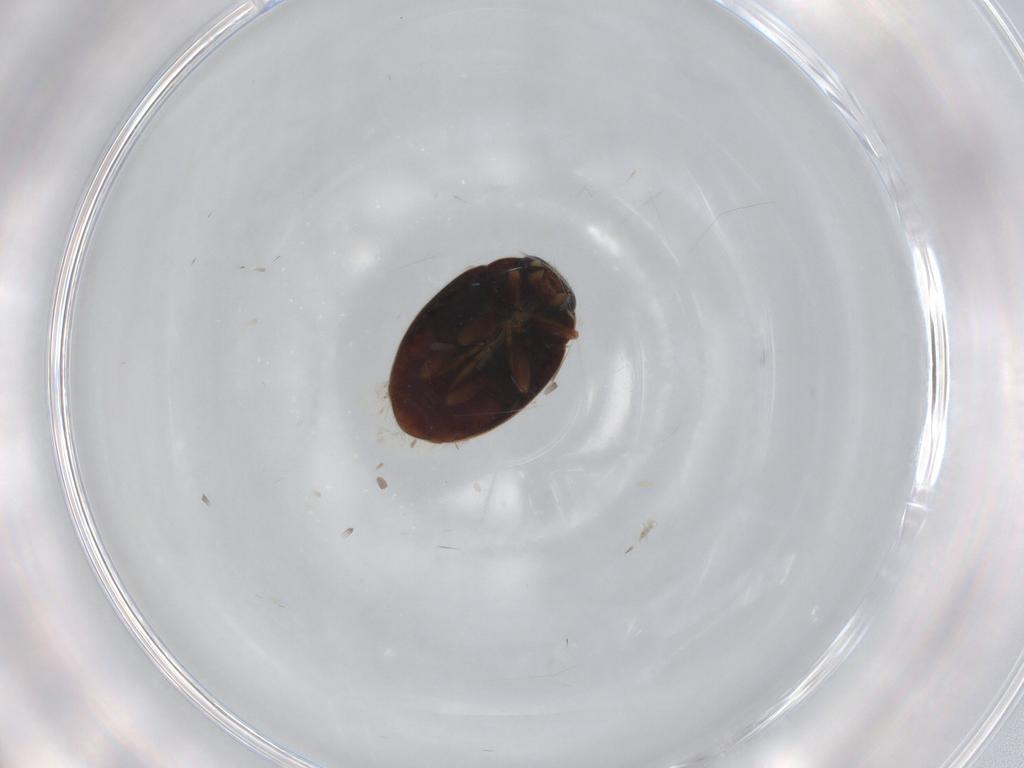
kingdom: Animalia
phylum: Arthropoda
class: Insecta
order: Coleoptera
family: Coccinellidae
